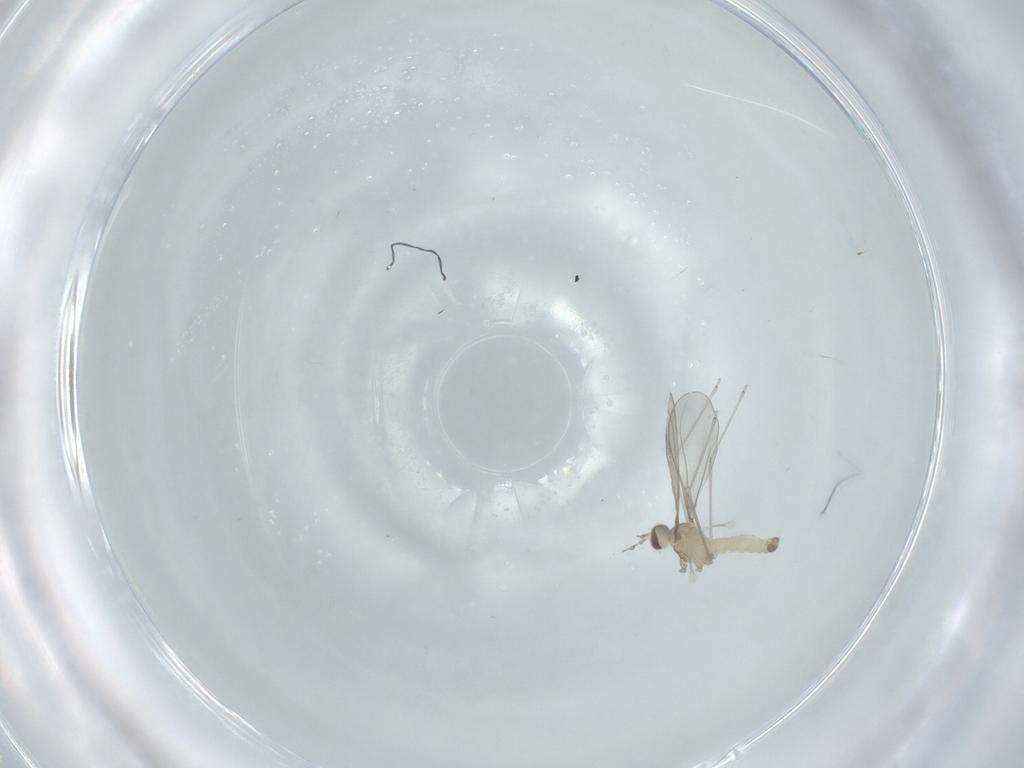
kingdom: Animalia
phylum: Arthropoda
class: Insecta
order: Diptera
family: Cecidomyiidae
